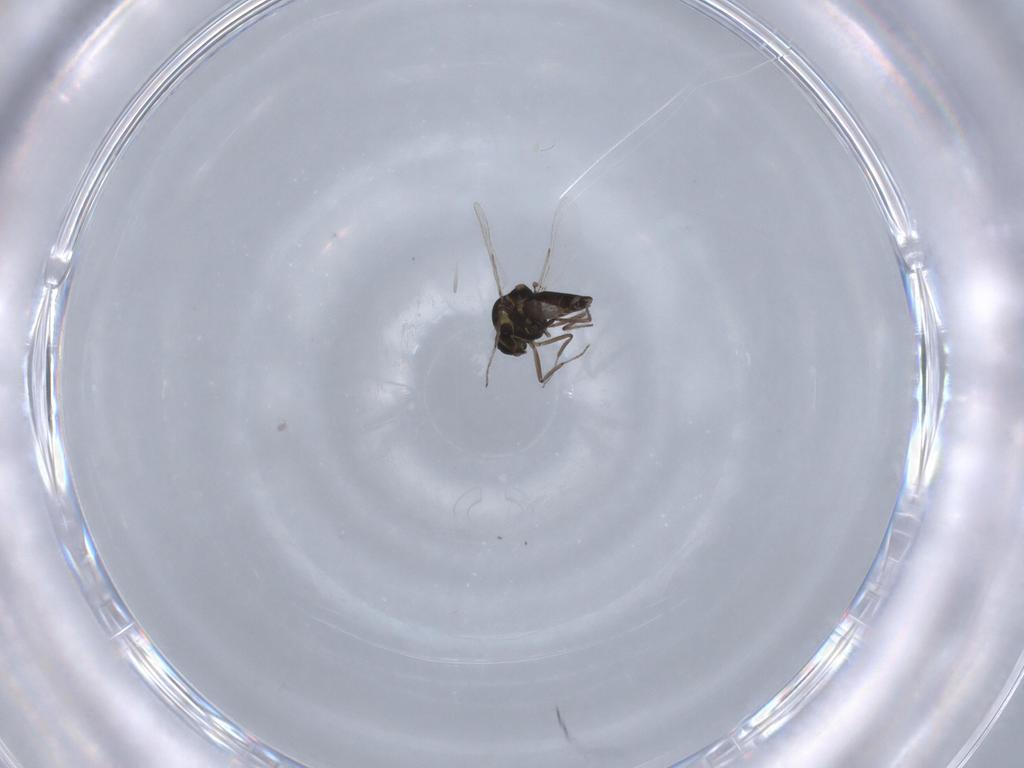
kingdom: Animalia
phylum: Arthropoda
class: Insecta
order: Diptera
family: Ceratopogonidae
